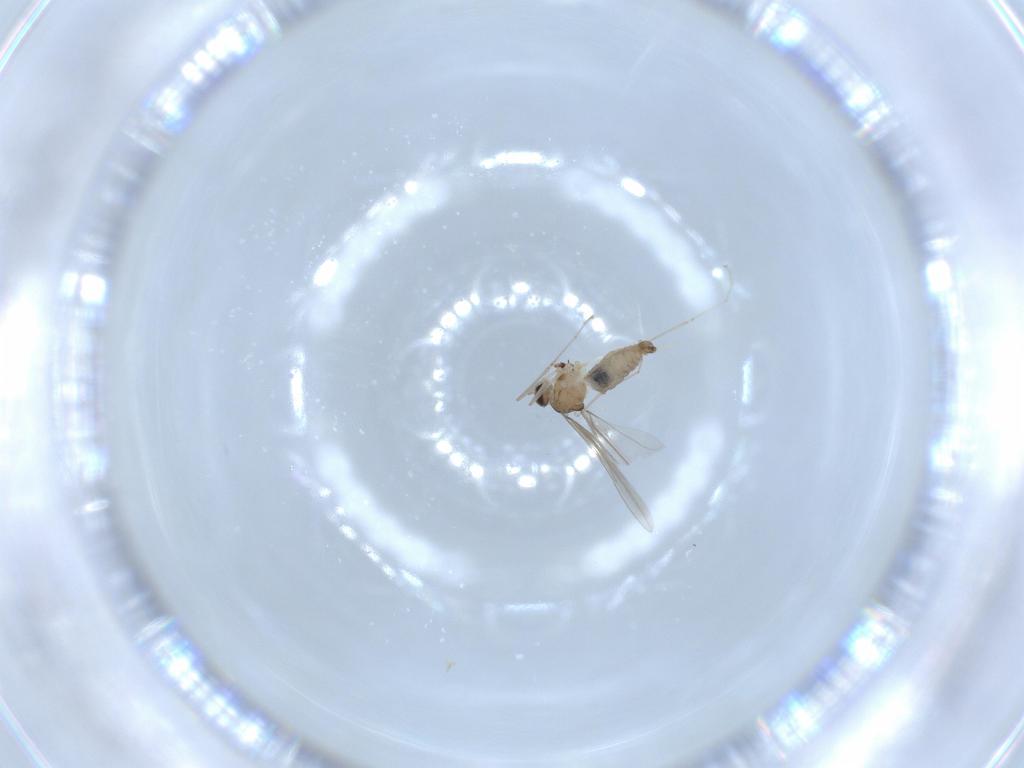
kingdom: Animalia
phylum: Arthropoda
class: Insecta
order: Diptera
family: Cecidomyiidae
